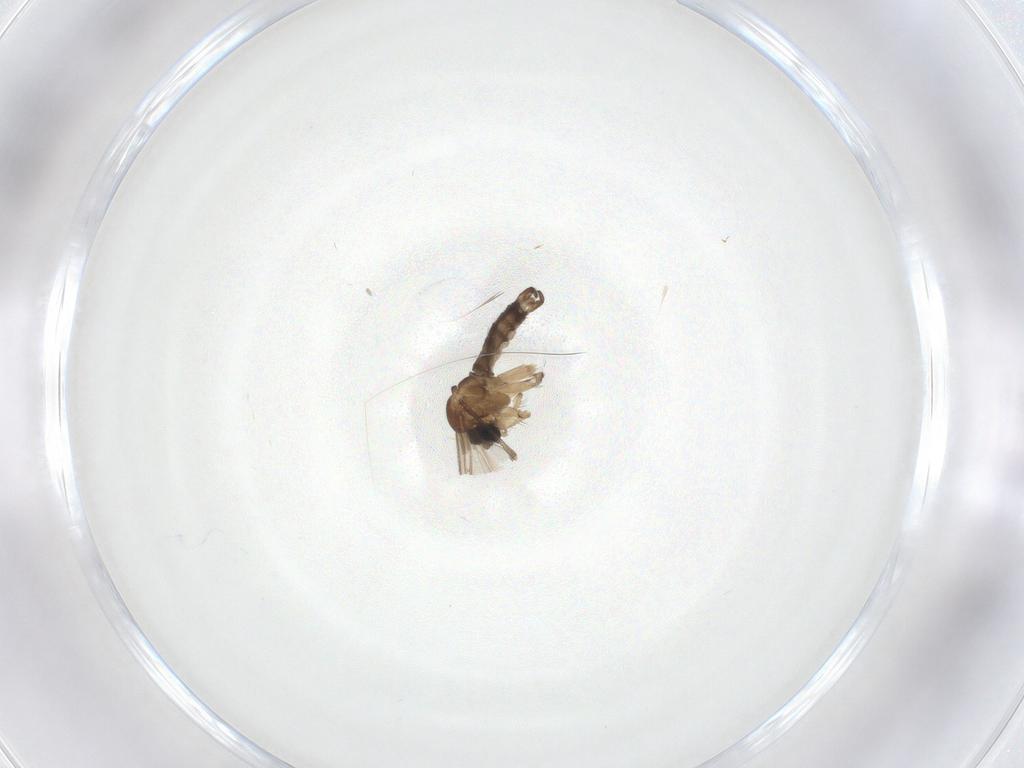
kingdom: Animalia
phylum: Arthropoda
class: Insecta
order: Diptera
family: Sciaridae
